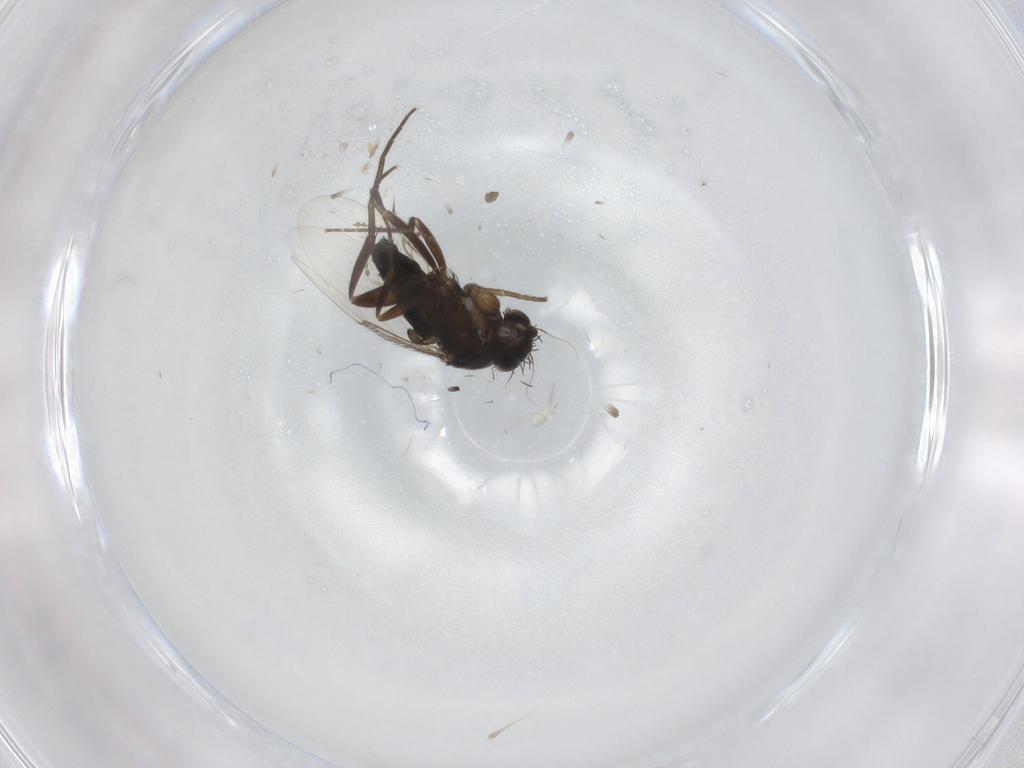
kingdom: Animalia
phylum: Arthropoda
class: Insecta
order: Diptera
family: Phoridae
